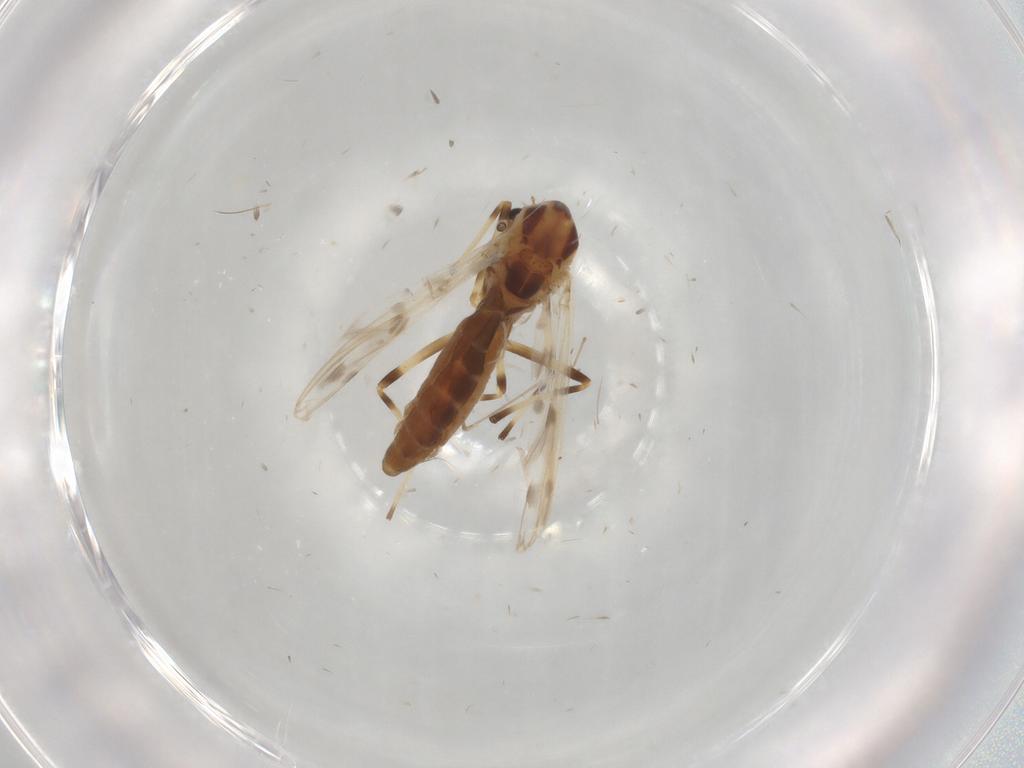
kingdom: Animalia
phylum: Arthropoda
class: Insecta
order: Diptera
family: Chironomidae
